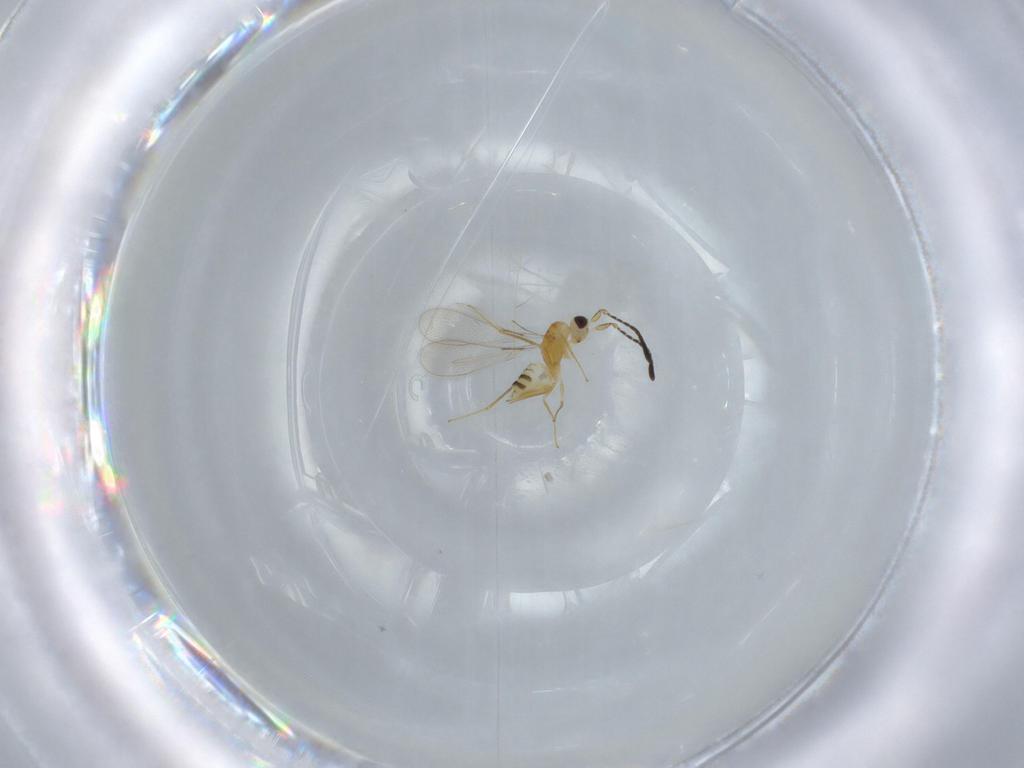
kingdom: Animalia
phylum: Arthropoda
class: Insecta
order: Hymenoptera
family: Mymaridae
